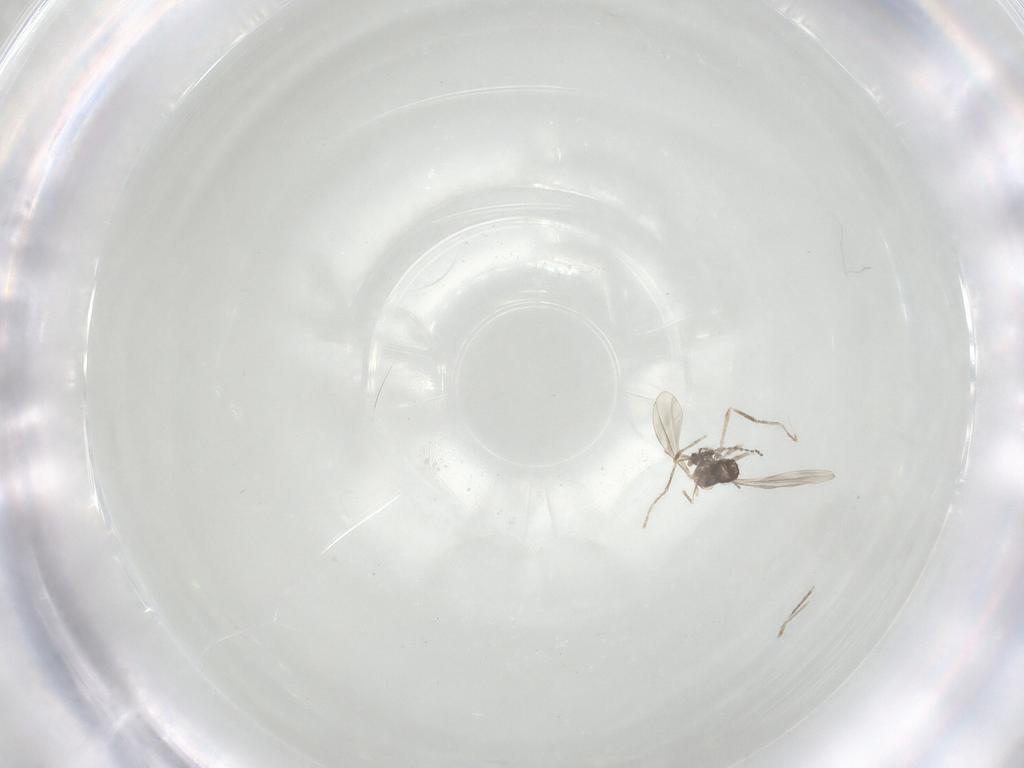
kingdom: Animalia
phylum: Arthropoda
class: Insecta
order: Diptera
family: Cecidomyiidae
